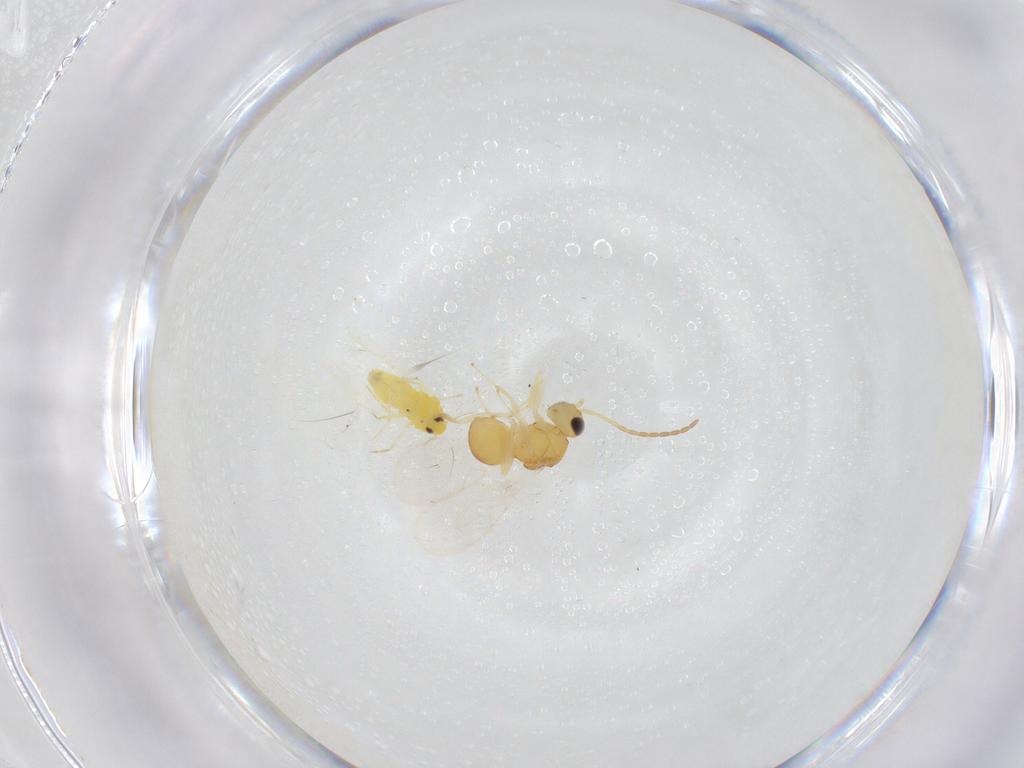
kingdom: Animalia
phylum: Arthropoda
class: Insecta
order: Hemiptera
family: Aleyrodidae
